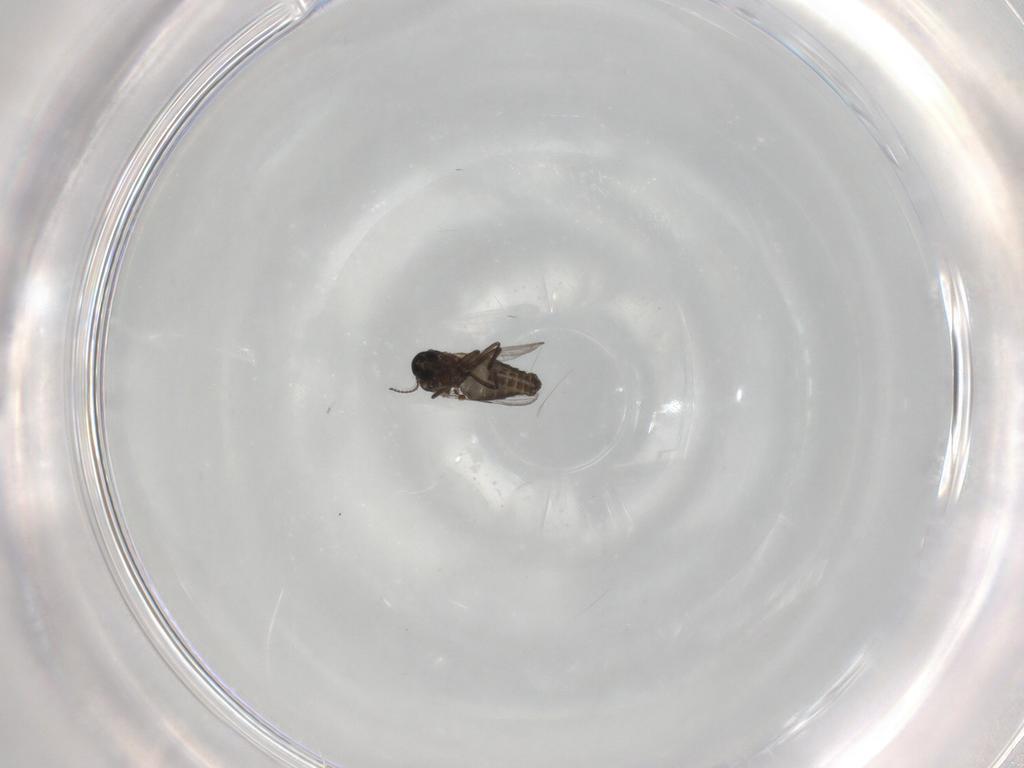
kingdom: Animalia
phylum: Arthropoda
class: Insecta
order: Diptera
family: Ceratopogonidae
